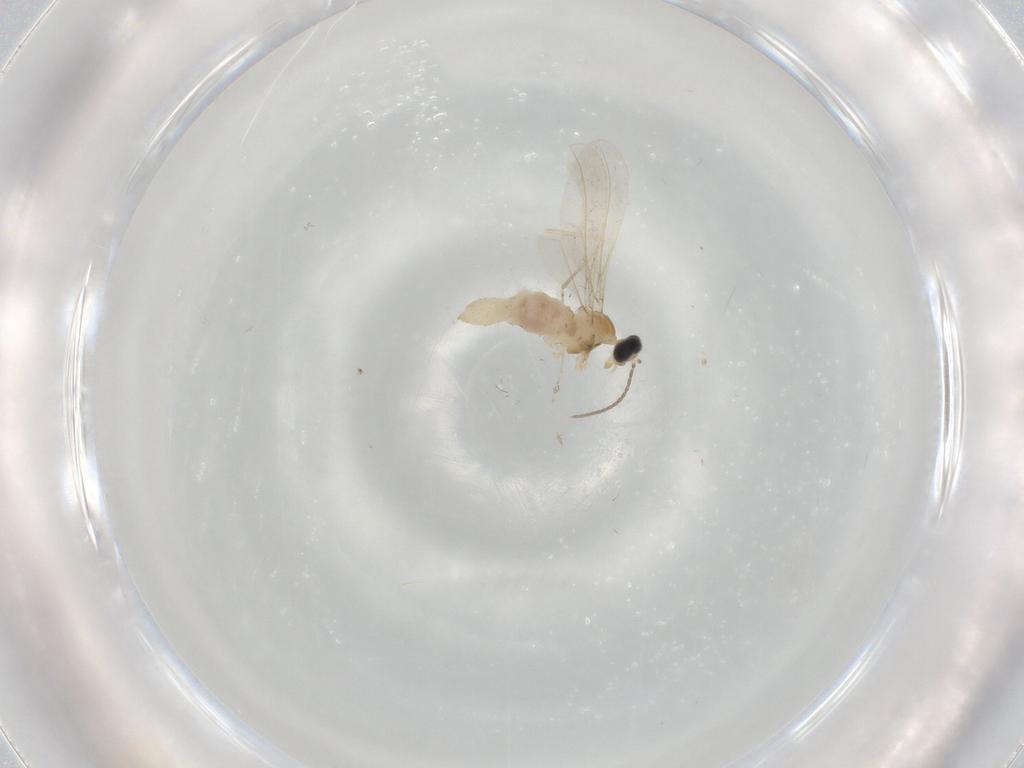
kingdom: Animalia
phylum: Arthropoda
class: Insecta
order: Diptera
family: Cecidomyiidae
